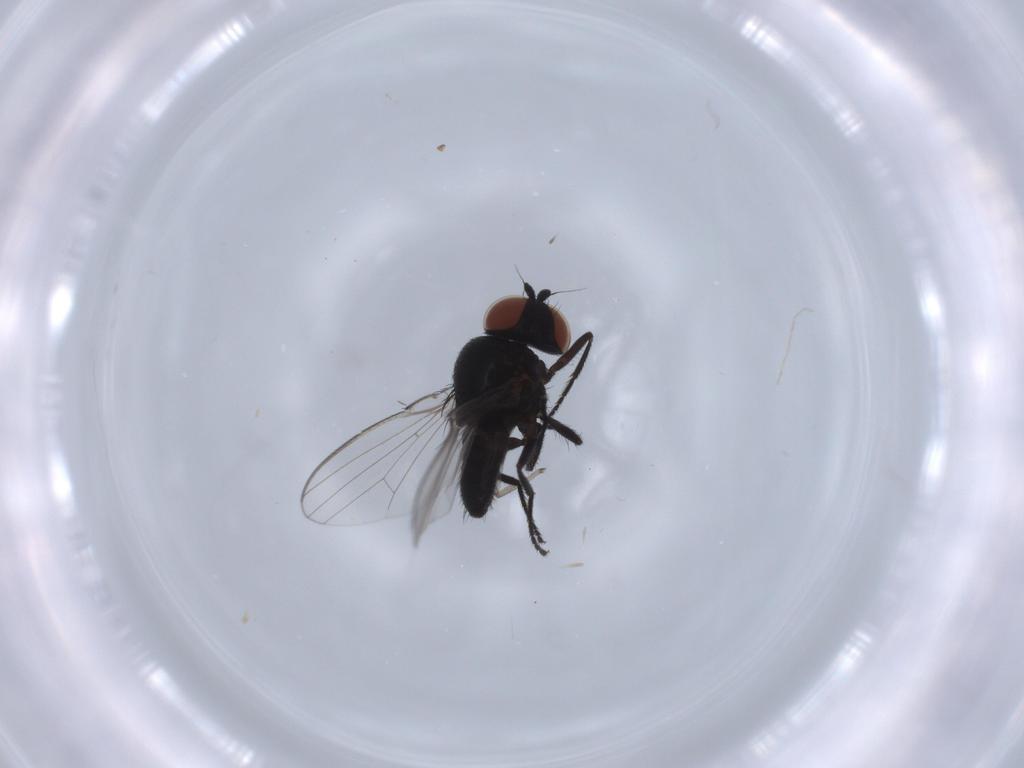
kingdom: Animalia
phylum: Arthropoda
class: Insecta
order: Diptera
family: Milichiidae
